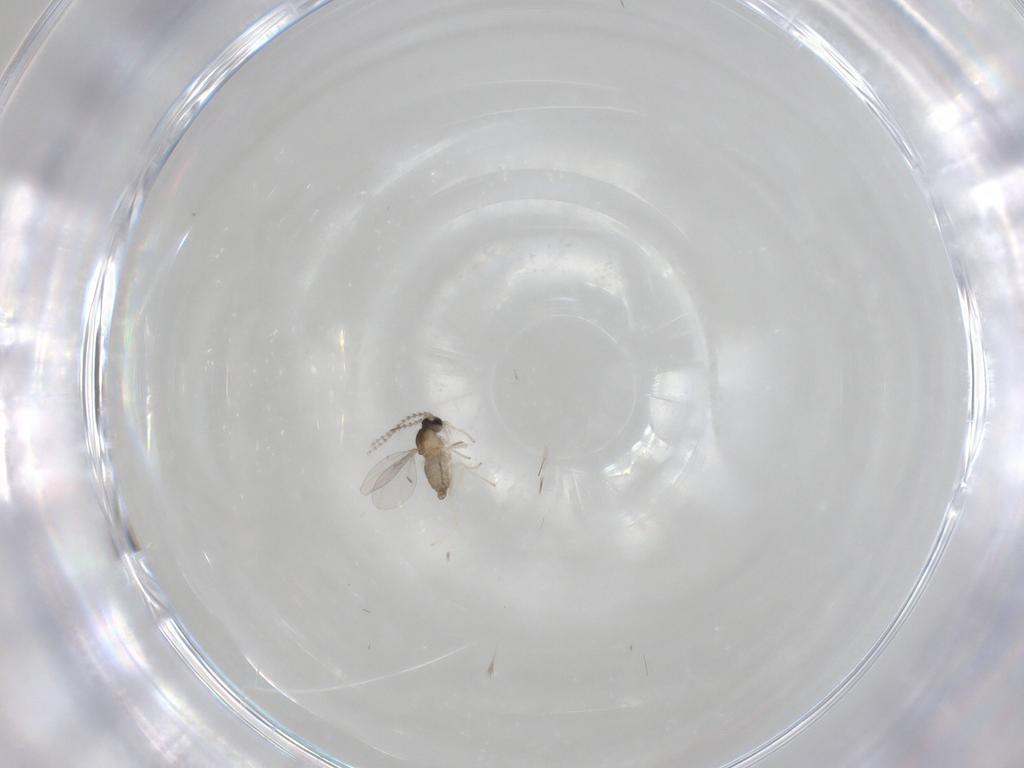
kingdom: Animalia
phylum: Arthropoda
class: Insecta
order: Diptera
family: Cecidomyiidae
